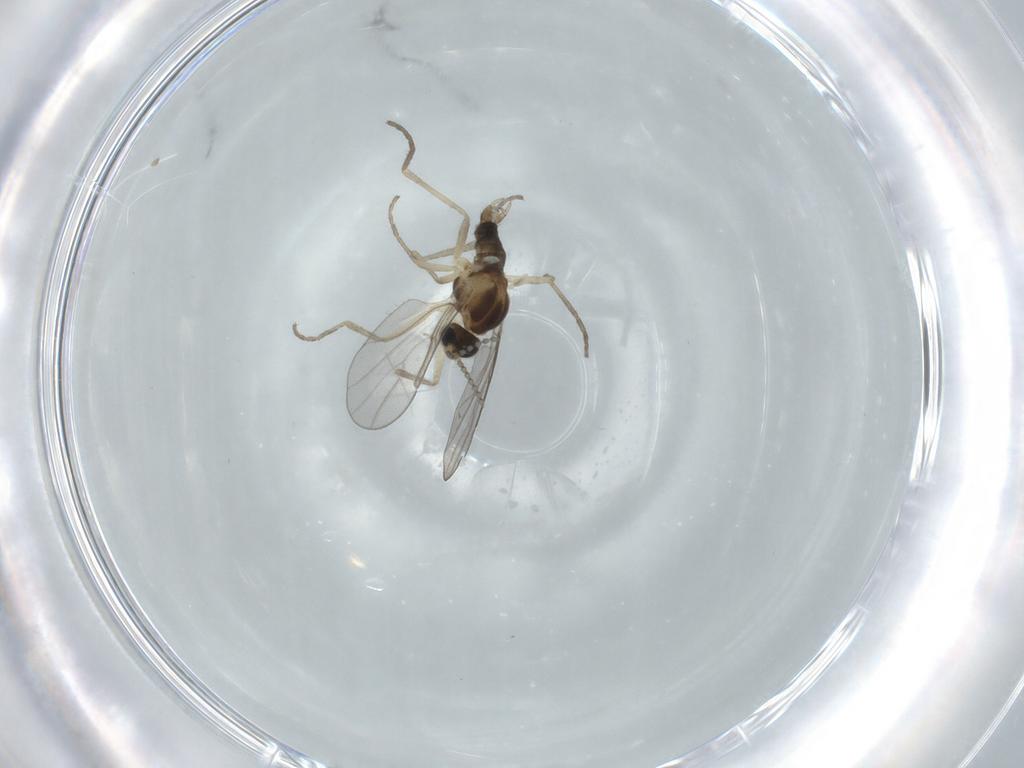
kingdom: Animalia
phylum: Arthropoda
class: Insecta
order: Diptera
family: Cecidomyiidae
